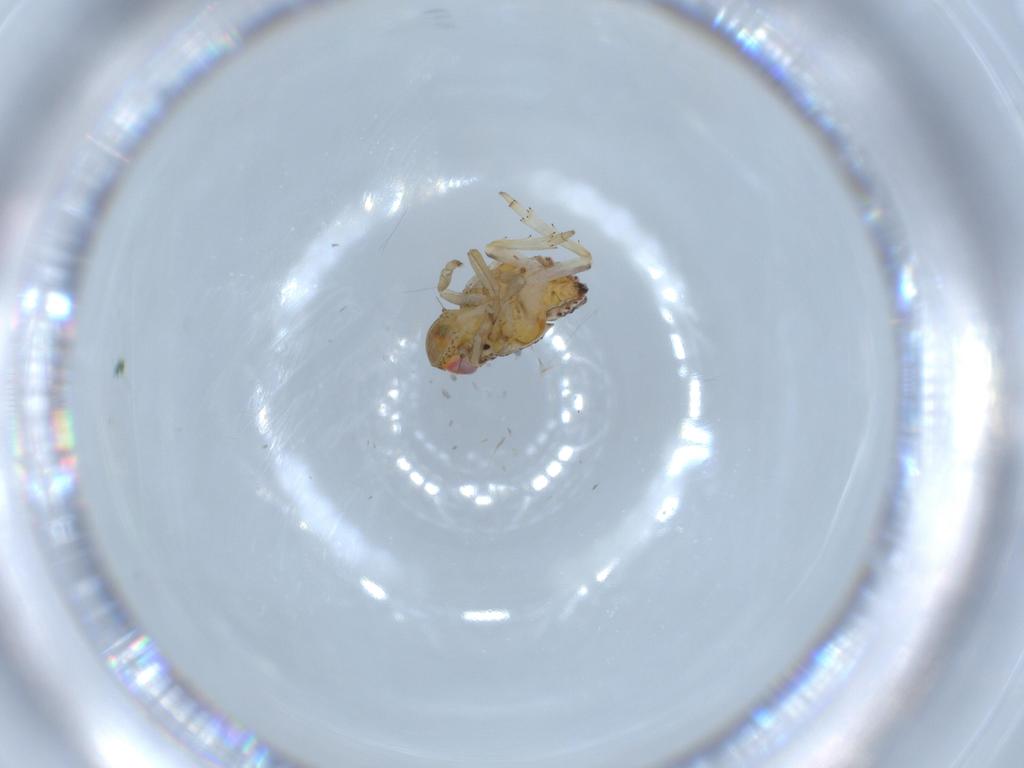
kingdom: Animalia
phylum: Arthropoda
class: Insecta
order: Hemiptera
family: Issidae
